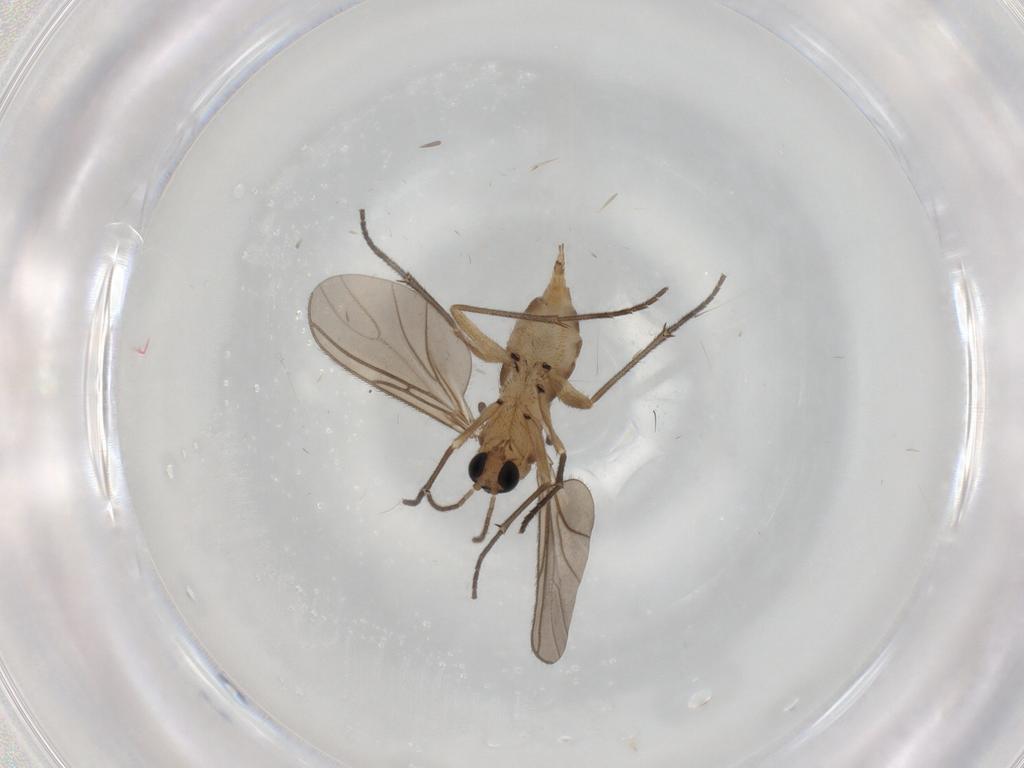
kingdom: Animalia
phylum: Arthropoda
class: Insecta
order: Diptera
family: Sciaridae
